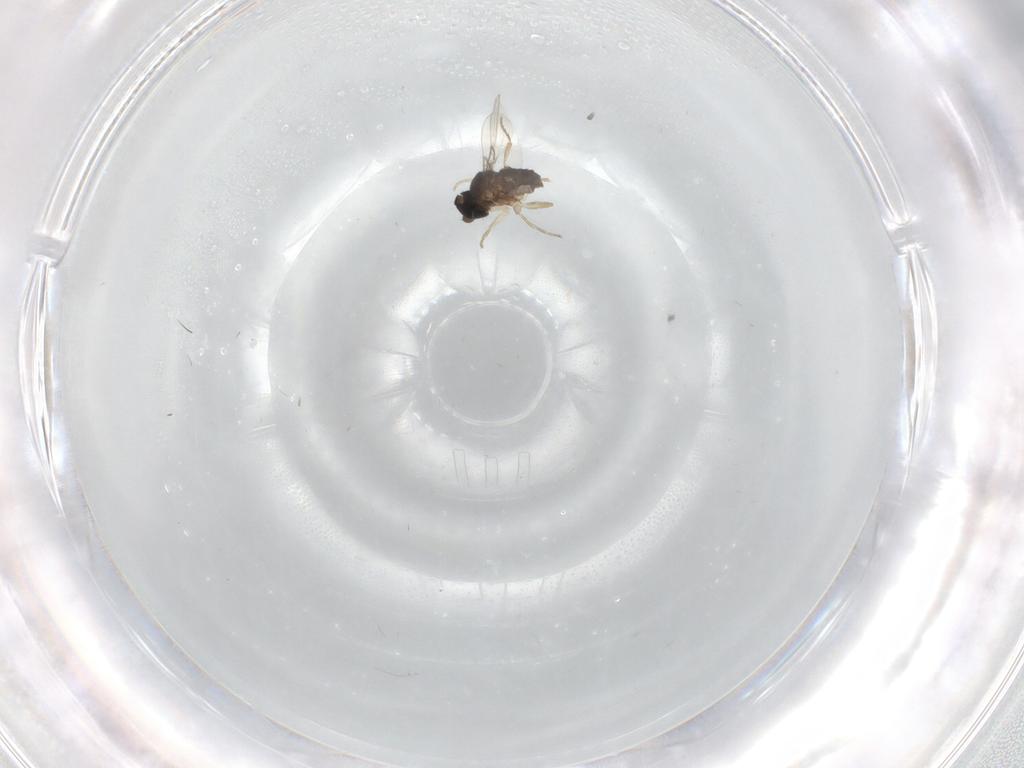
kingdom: Animalia
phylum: Arthropoda
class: Insecta
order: Diptera
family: Phoridae
